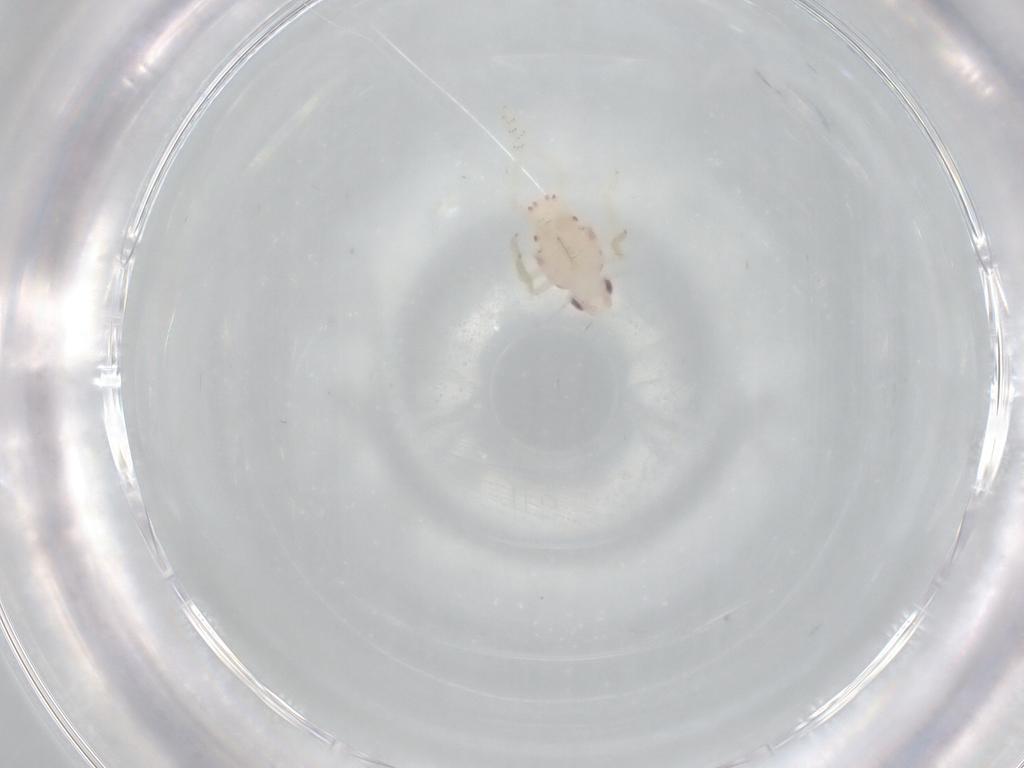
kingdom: Animalia
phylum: Arthropoda
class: Insecta
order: Hemiptera
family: Tropiduchidae
